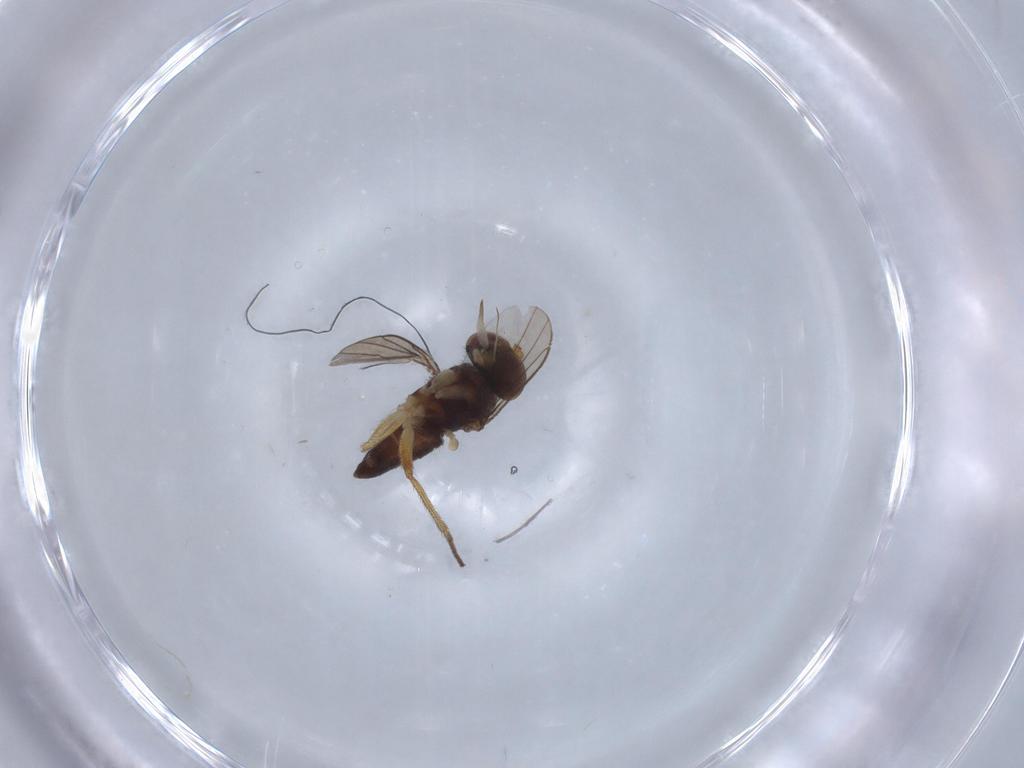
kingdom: Animalia
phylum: Arthropoda
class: Insecta
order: Diptera
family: Dolichopodidae
